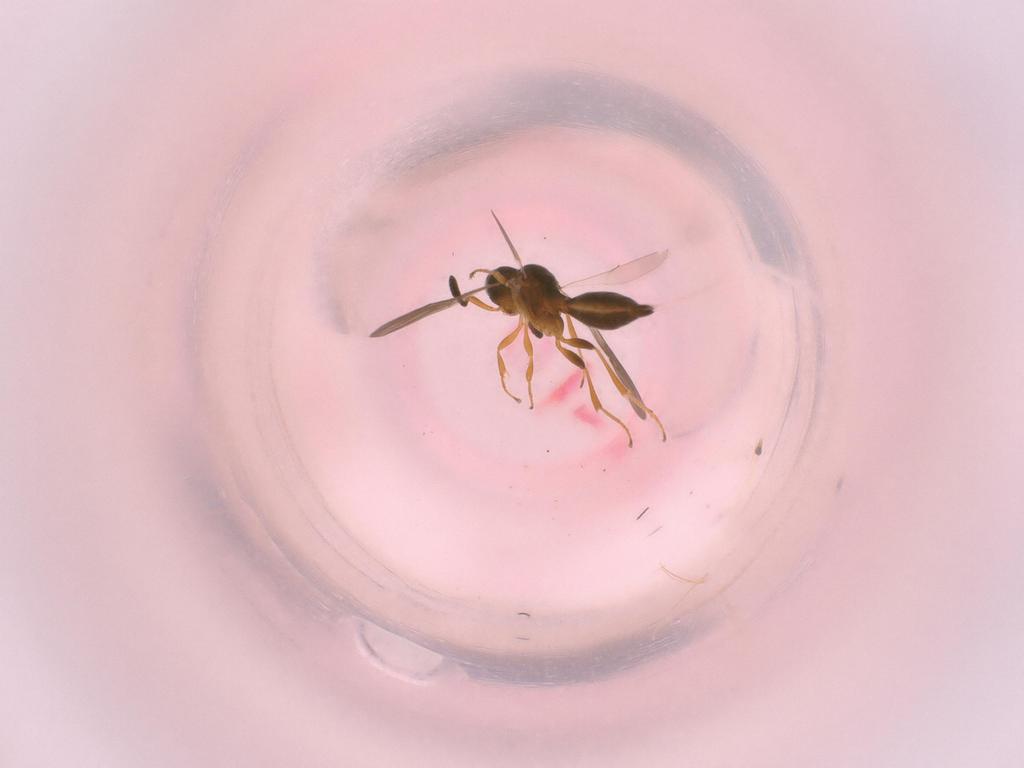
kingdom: Animalia
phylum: Arthropoda
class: Insecta
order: Hymenoptera
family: Scelionidae
